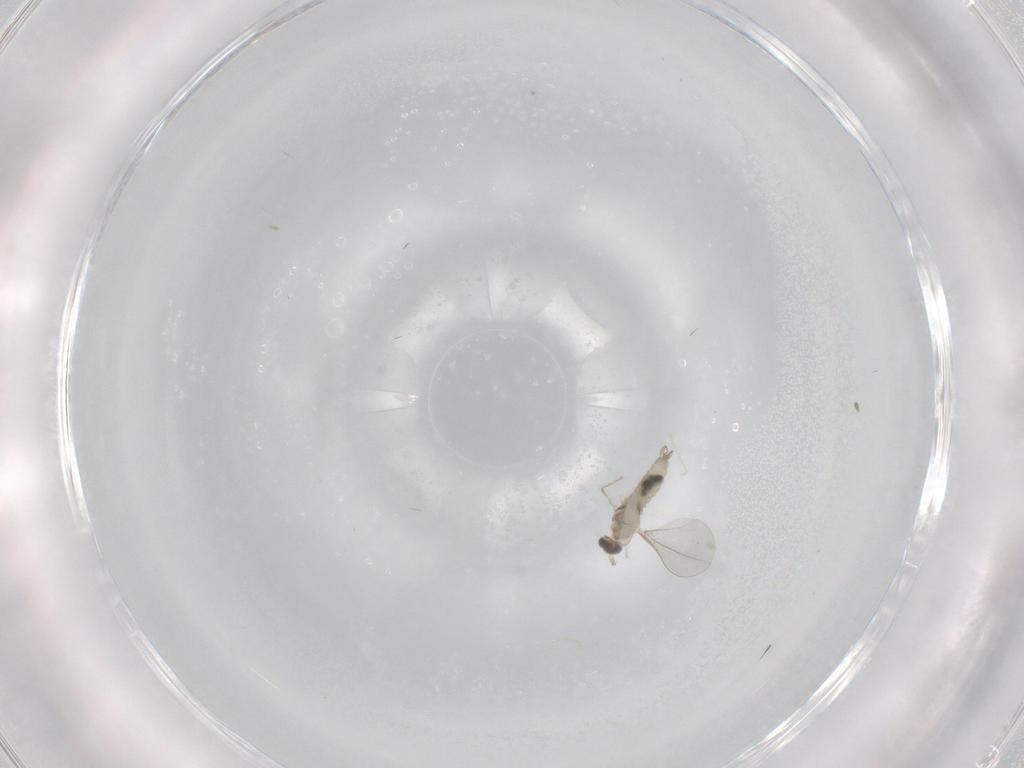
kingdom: Animalia
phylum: Arthropoda
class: Insecta
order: Diptera
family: Cecidomyiidae
